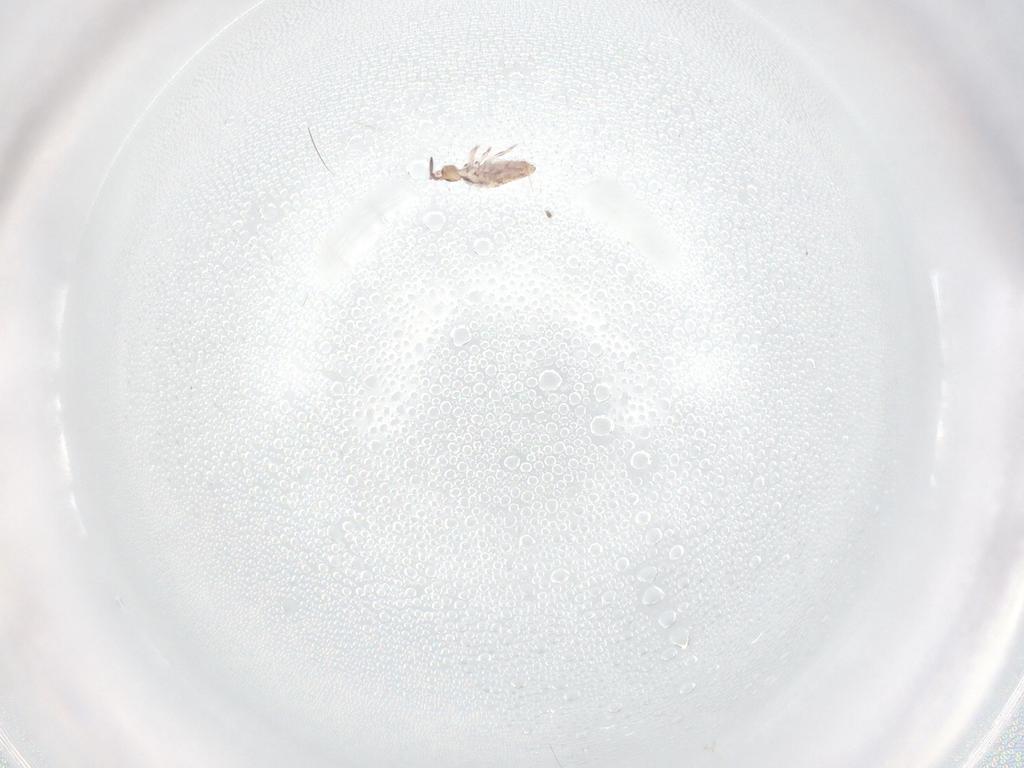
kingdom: Animalia
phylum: Arthropoda
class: Collembola
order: Entomobryomorpha
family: Entomobryidae
